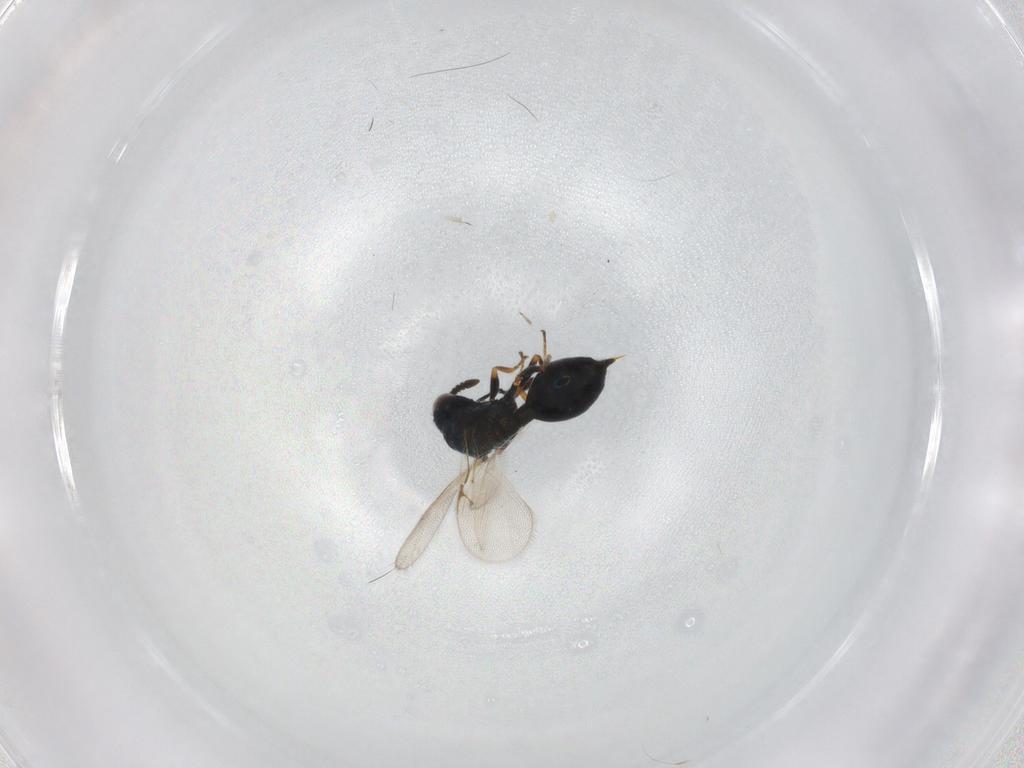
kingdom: Animalia
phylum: Arthropoda
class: Insecta
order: Hymenoptera
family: Chalcidoidea_incertae_sedis
